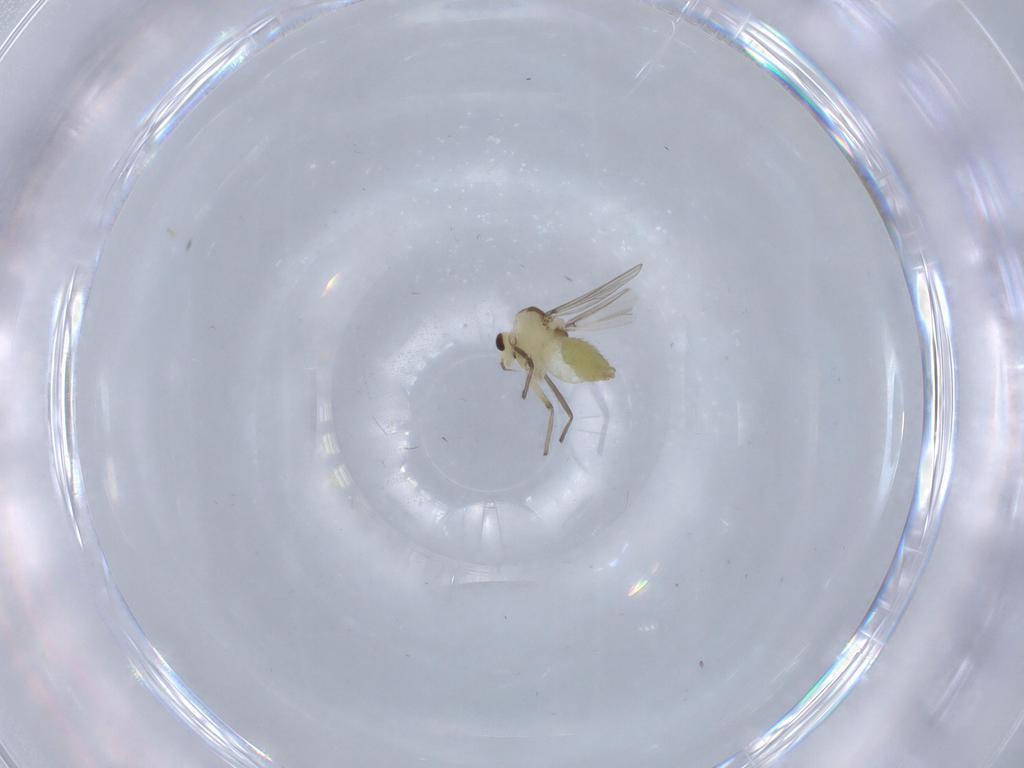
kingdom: Animalia
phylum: Arthropoda
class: Insecta
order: Diptera
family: Chironomidae
